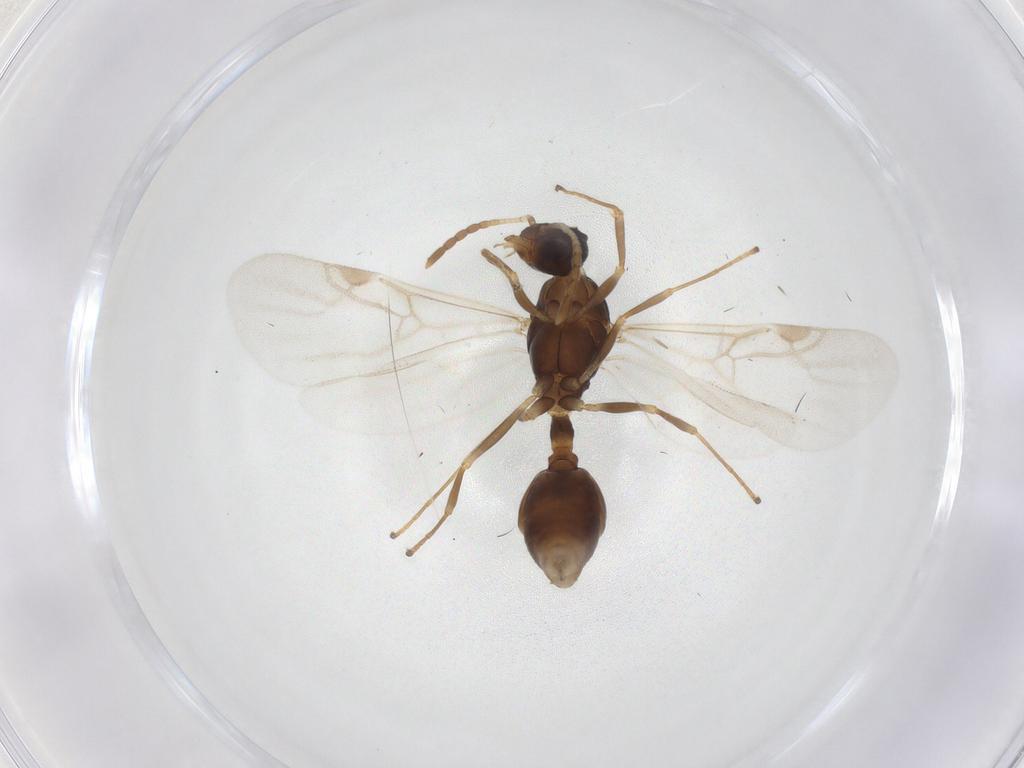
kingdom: Animalia
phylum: Arthropoda
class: Insecta
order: Hymenoptera
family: Formicidae
